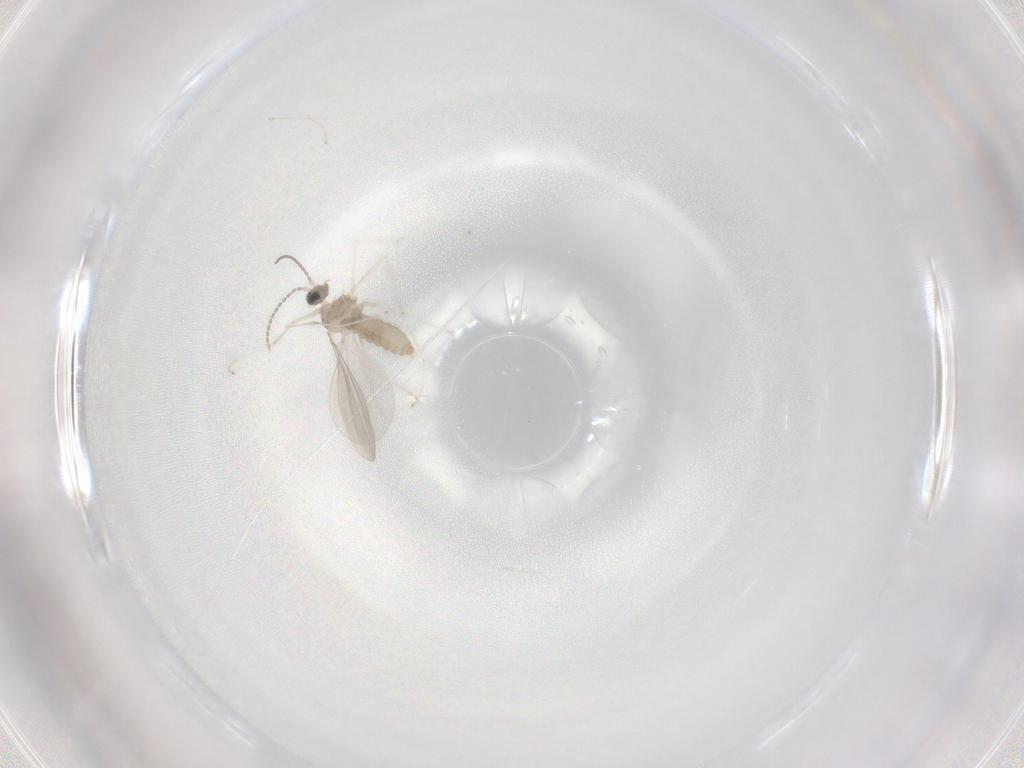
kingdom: Animalia
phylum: Arthropoda
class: Insecta
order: Diptera
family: Cecidomyiidae
